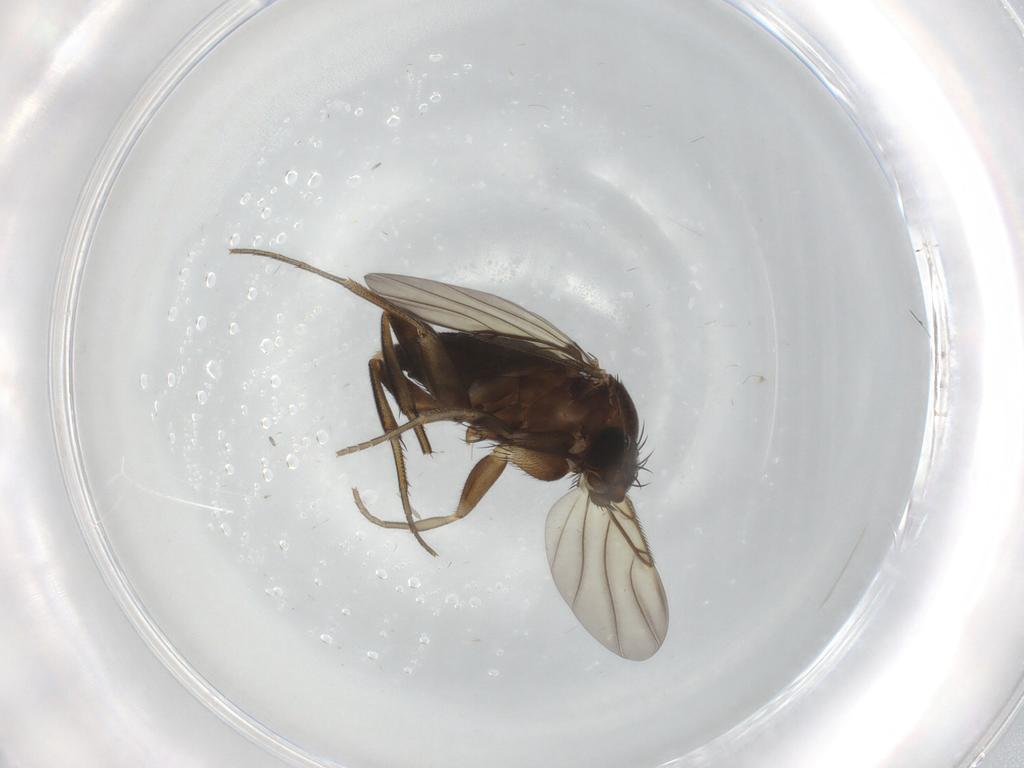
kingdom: Animalia
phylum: Arthropoda
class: Insecta
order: Diptera
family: Phoridae
